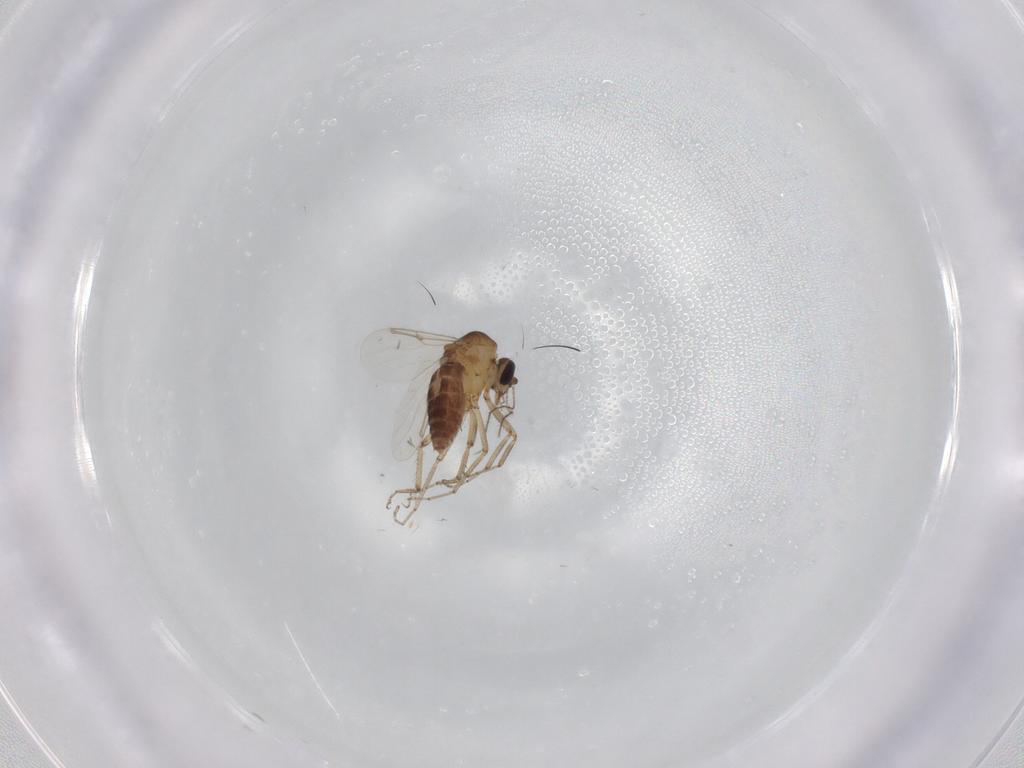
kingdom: Animalia
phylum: Arthropoda
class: Insecta
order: Diptera
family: Ceratopogonidae
